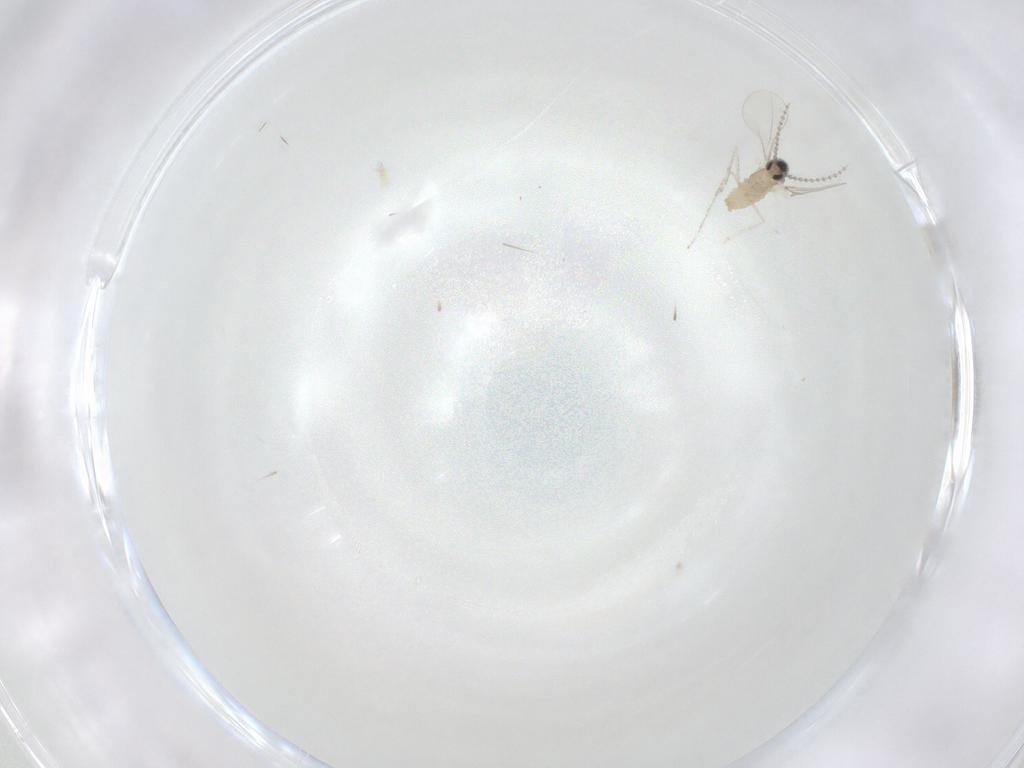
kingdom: Animalia
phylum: Arthropoda
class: Insecta
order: Diptera
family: Cecidomyiidae
